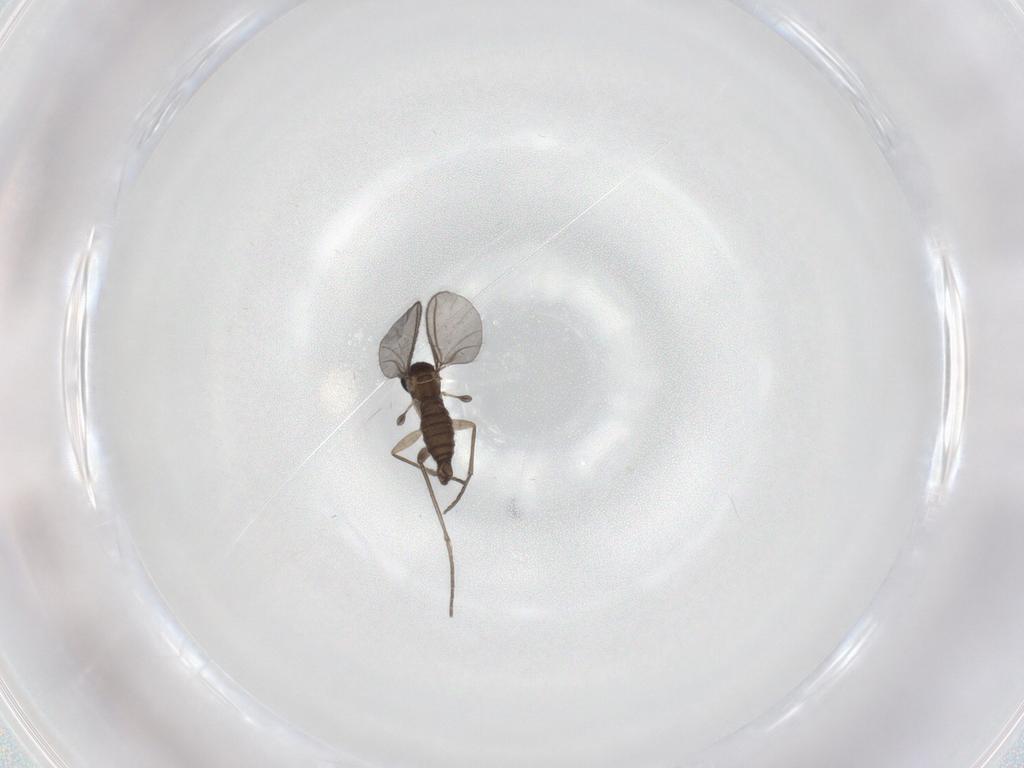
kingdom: Animalia
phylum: Arthropoda
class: Insecta
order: Diptera
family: Sciaridae
